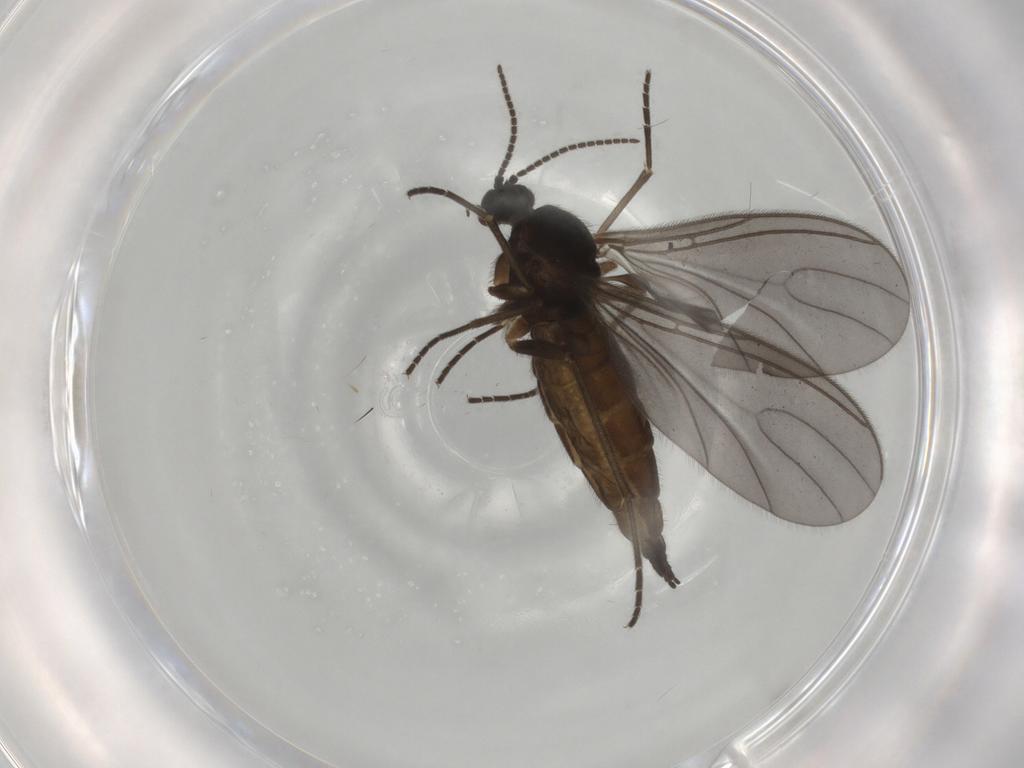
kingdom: Animalia
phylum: Arthropoda
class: Insecta
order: Diptera
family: Sciaridae
